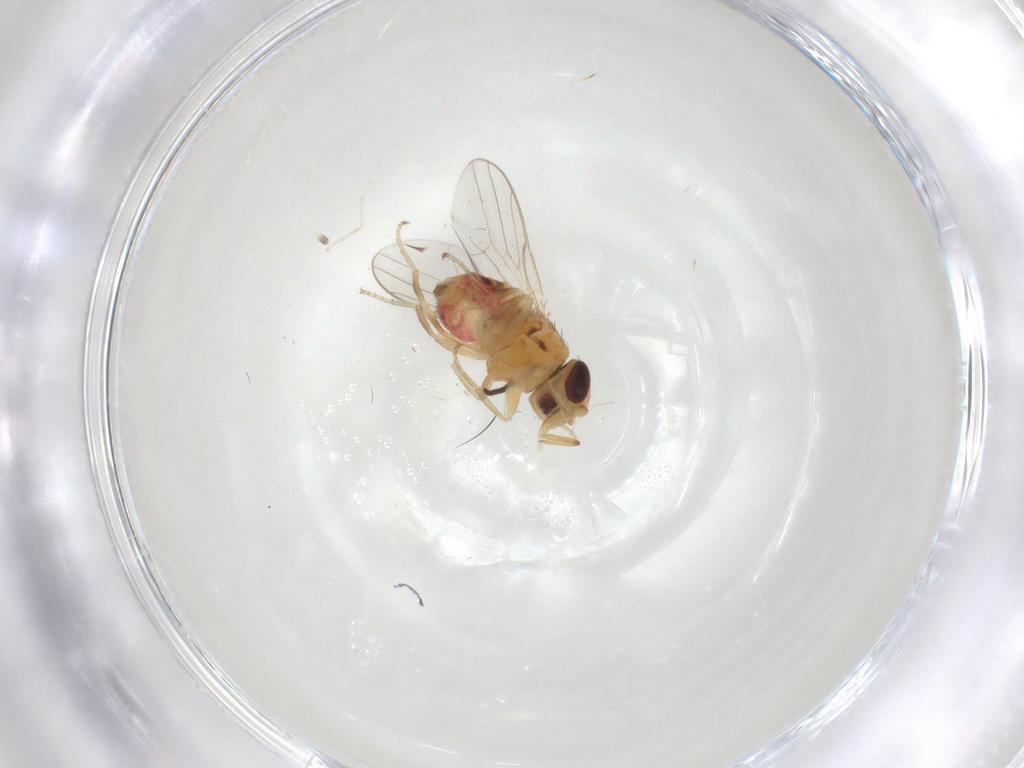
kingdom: Animalia
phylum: Arthropoda
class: Insecta
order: Diptera
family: Chloropidae
